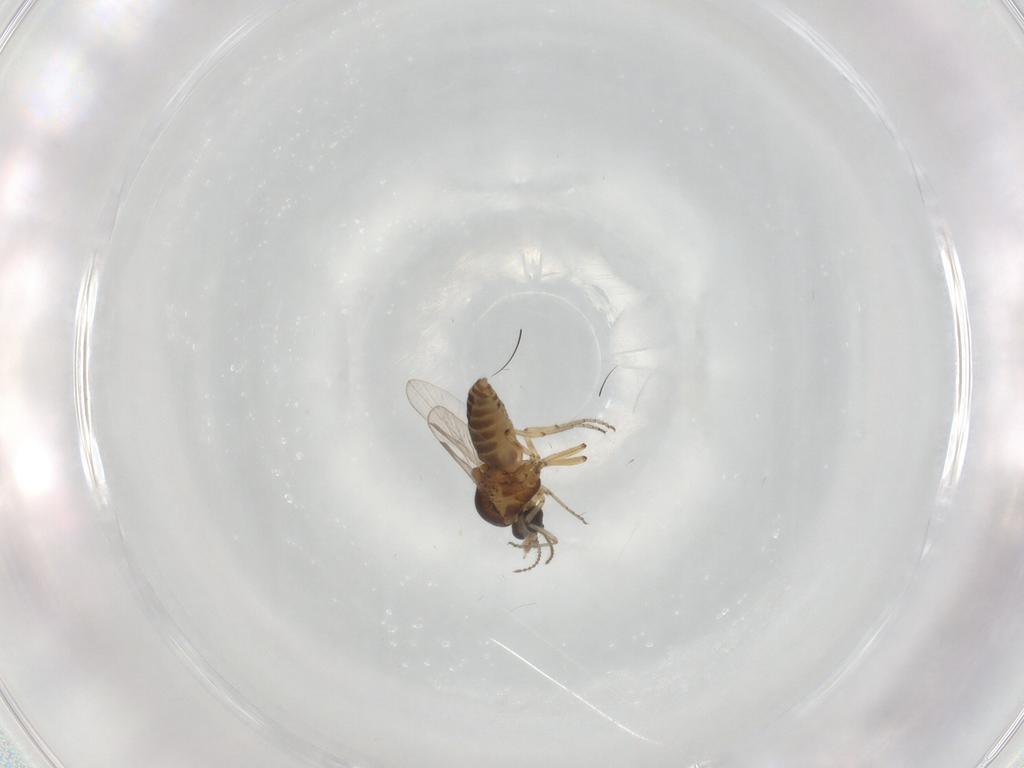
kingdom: Animalia
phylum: Arthropoda
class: Insecta
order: Diptera
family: Ceratopogonidae
